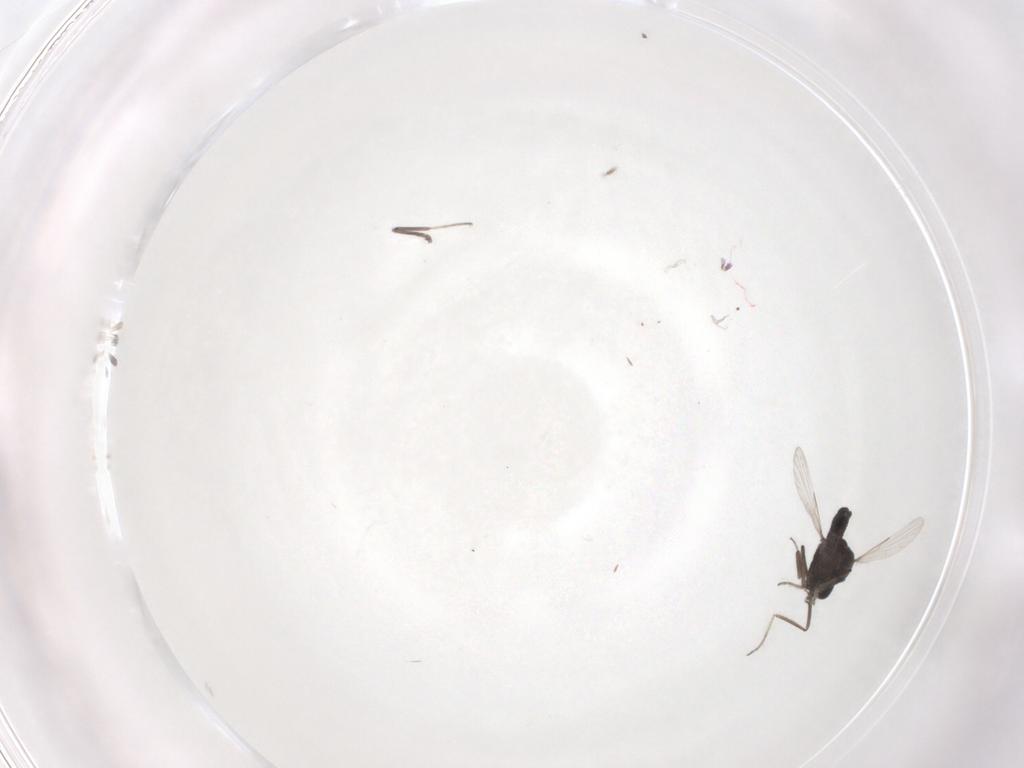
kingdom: Animalia
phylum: Arthropoda
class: Insecta
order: Diptera
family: Ceratopogonidae
